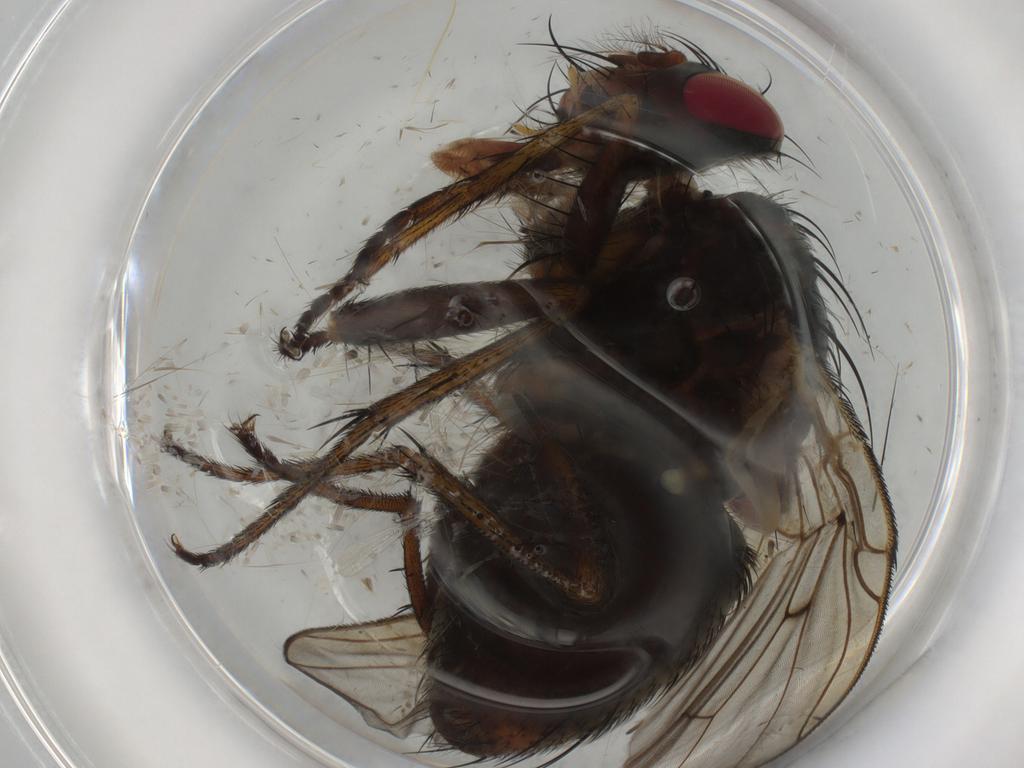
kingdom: Animalia
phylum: Arthropoda
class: Insecta
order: Diptera
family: Tachinidae
